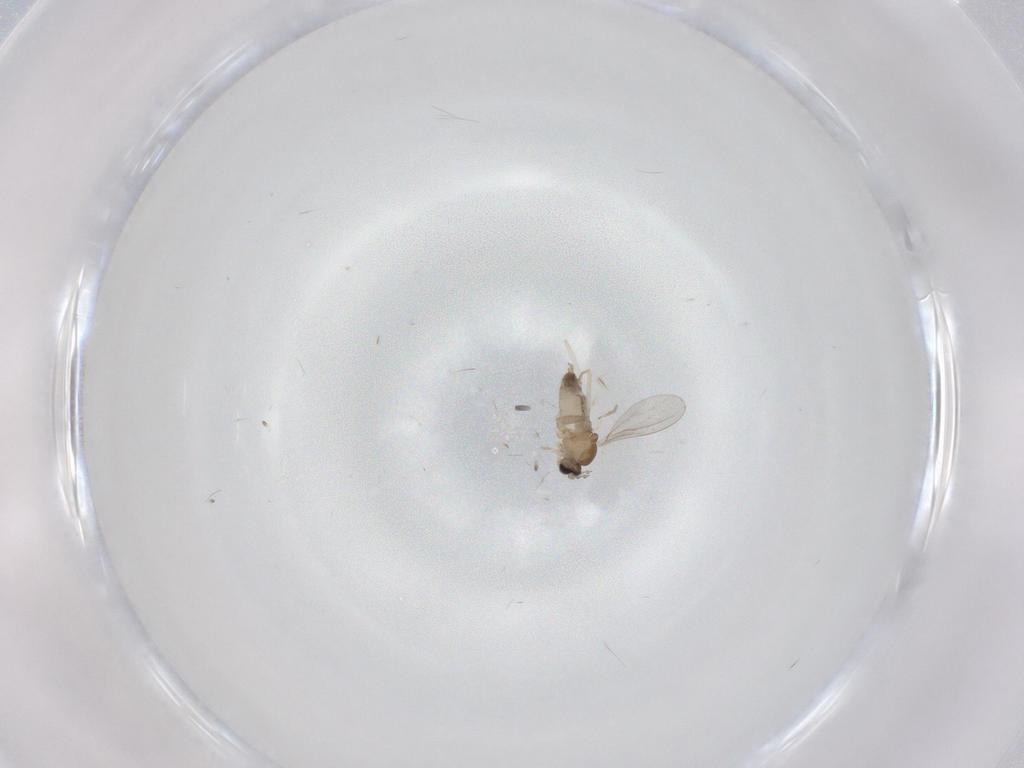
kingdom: Animalia
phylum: Arthropoda
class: Insecta
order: Diptera
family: Cecidomyiidae
